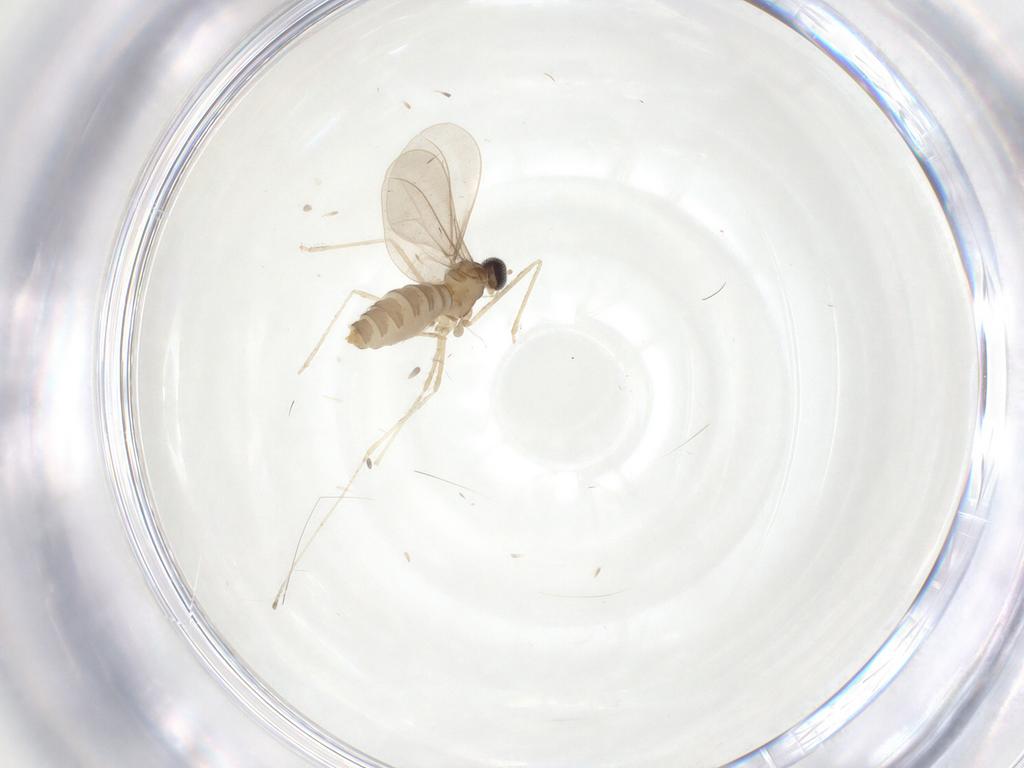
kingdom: Animalia
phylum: Arthropoda
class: Insecta
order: Diptera
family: Cecidomyiidae
